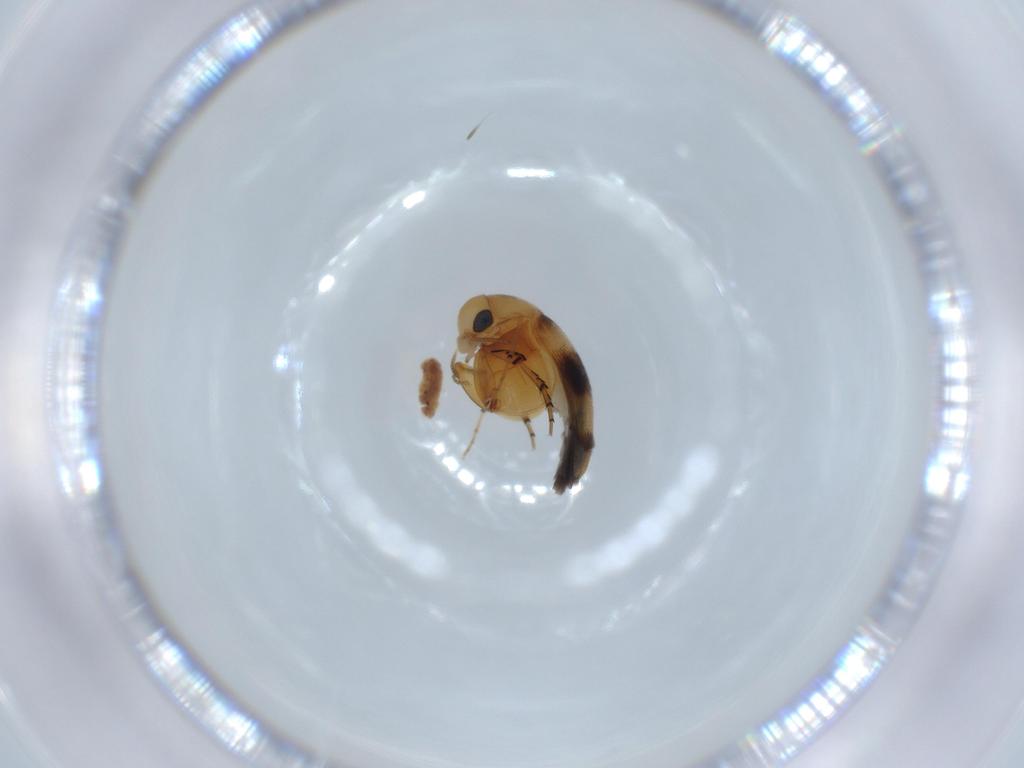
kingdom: Animalia
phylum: Arthropoda
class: Insecta
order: Coleoptera
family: Mordellidae
